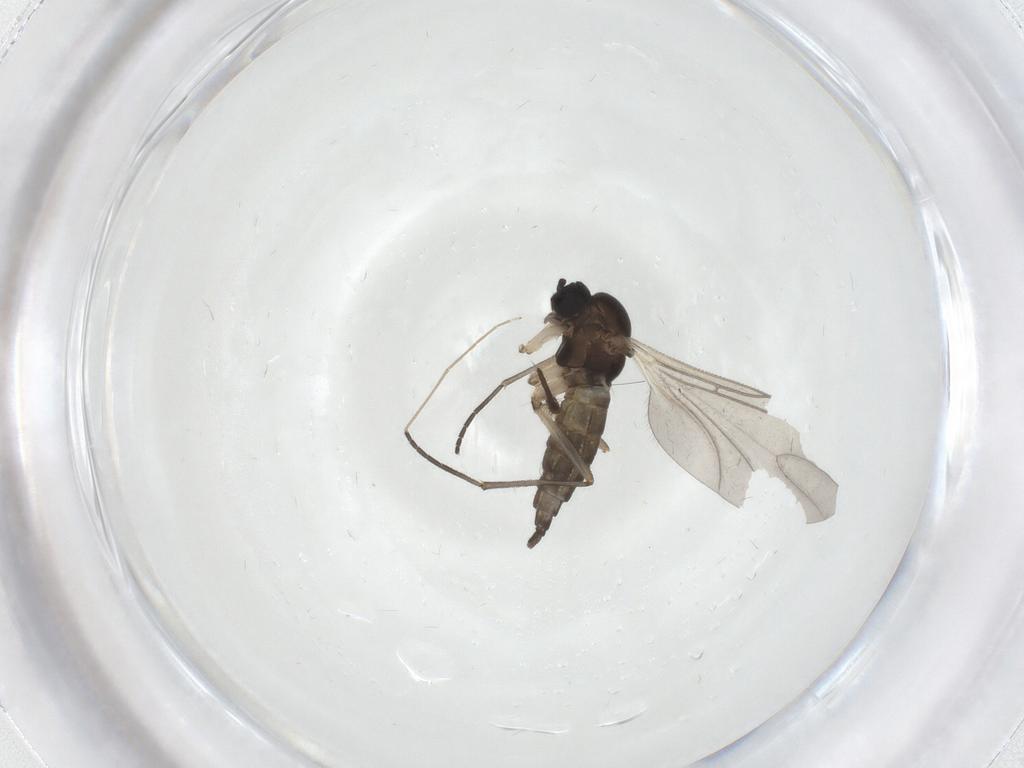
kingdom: Animalia
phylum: Arthropoda
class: Insecta
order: Diptera
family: Sciaridae
